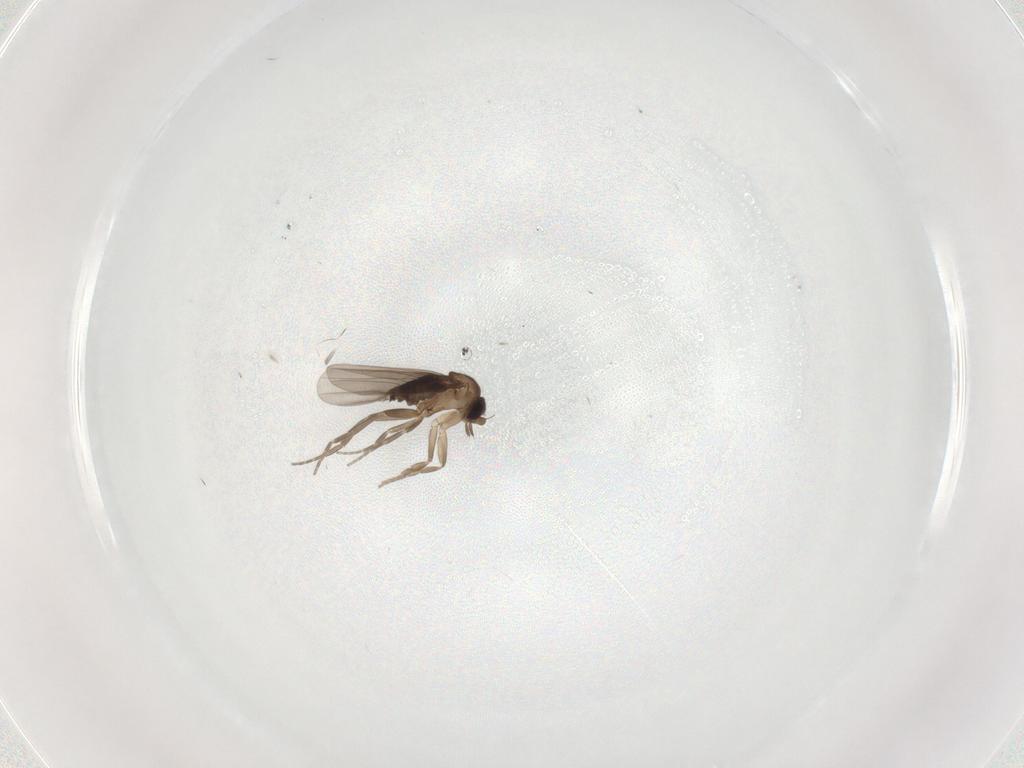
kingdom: Animalia
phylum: Arthropoda
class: Insecta
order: Diptera
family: Psychodidae
